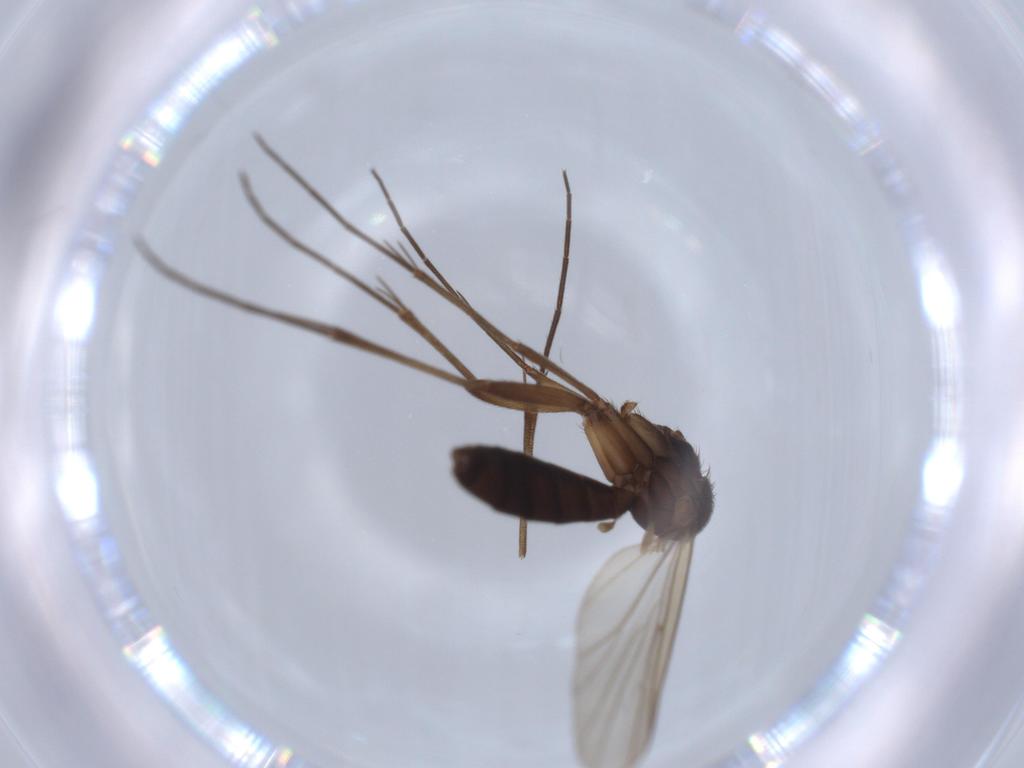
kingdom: Animalia
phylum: Arthropoda
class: Insecta
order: Diptera
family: Mycetophilidae
